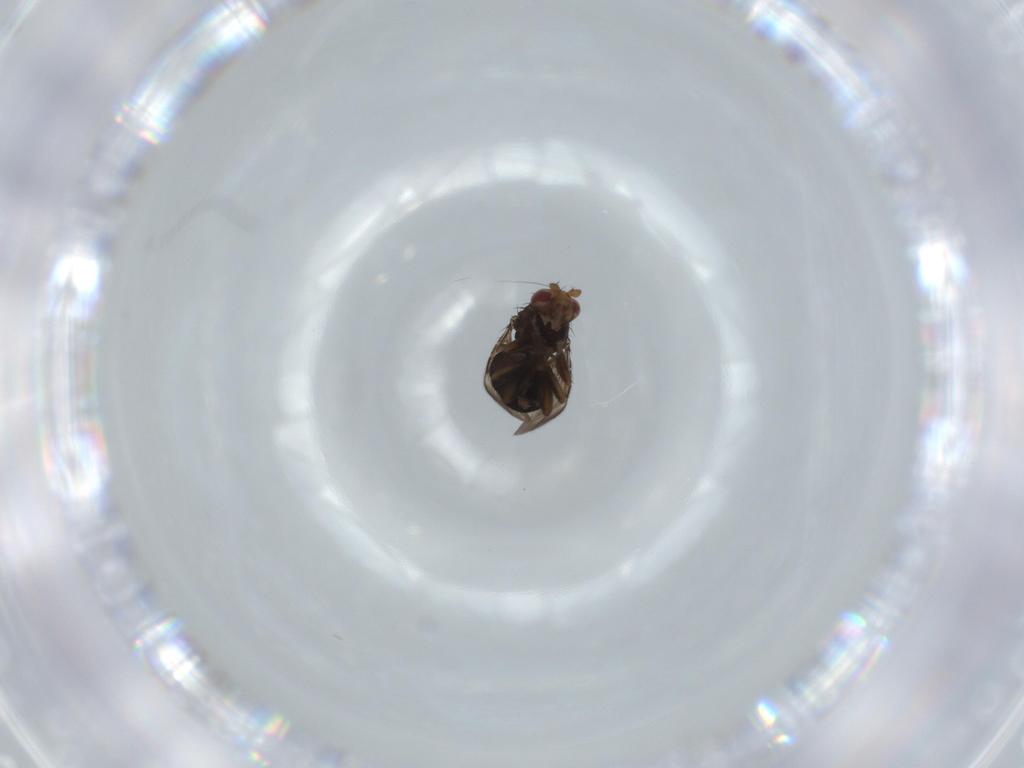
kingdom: Animalia
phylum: Arthropoda
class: Insecta
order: Diptera
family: Sphaeroceridae
